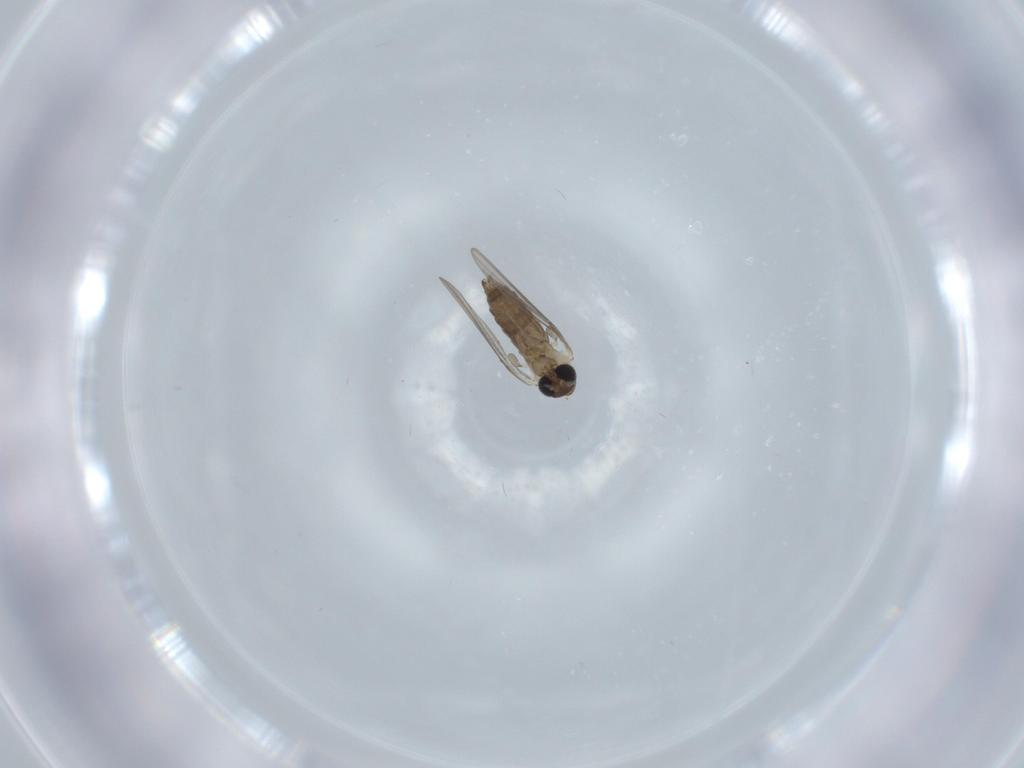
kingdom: Animalia
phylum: Arthropoda
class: Insecta
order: Diptera
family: Psychodidae
